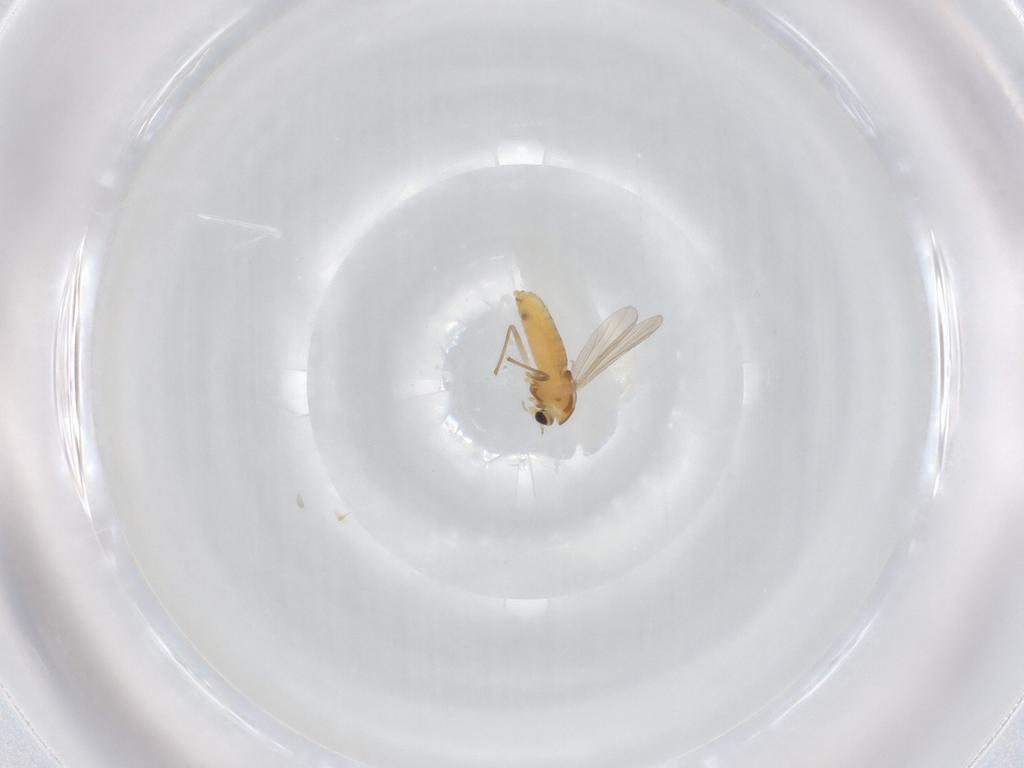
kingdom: Animalia
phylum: Arthropoda
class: Insecta
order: Diptera
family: Chironomidae
